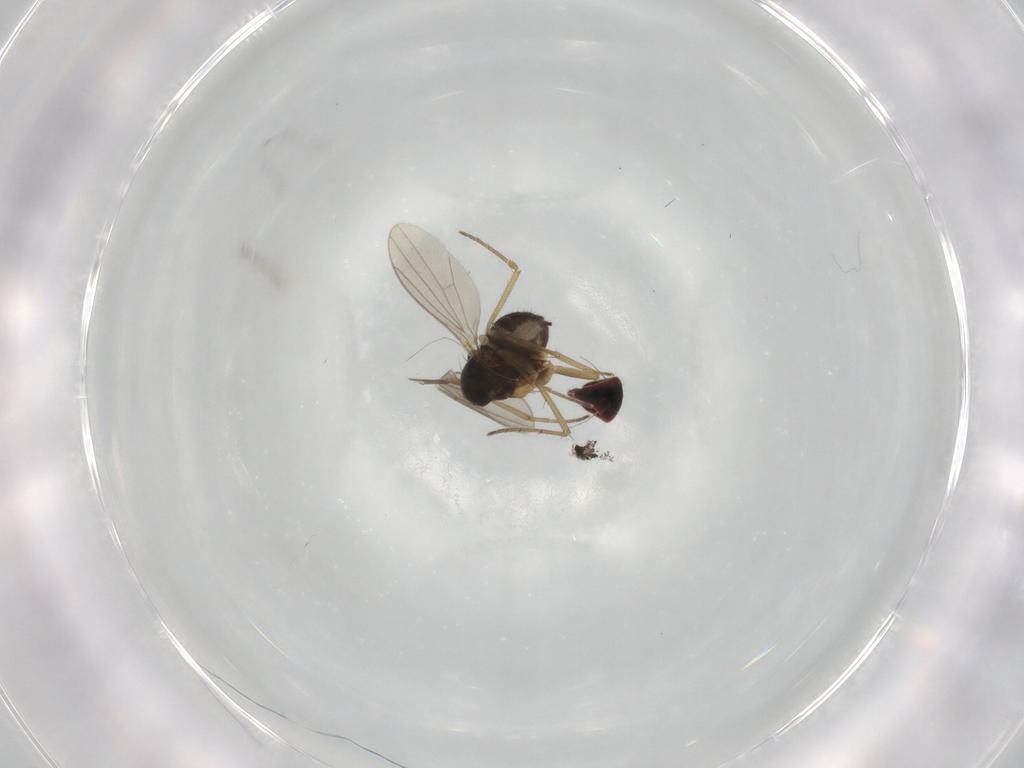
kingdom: Animalia
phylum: Arthropoda
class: Insecta
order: Diptera
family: Dolichopodidae
